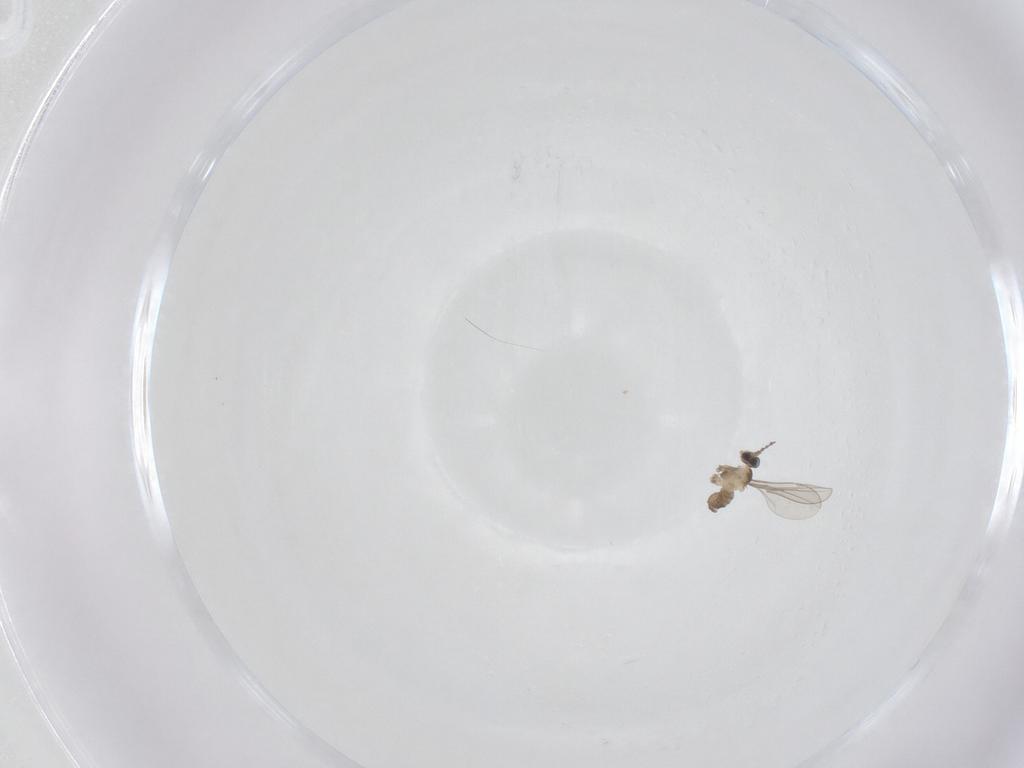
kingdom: Animalia
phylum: Arthropoda
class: Insecta
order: Diptera
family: Cecidomyiidae
